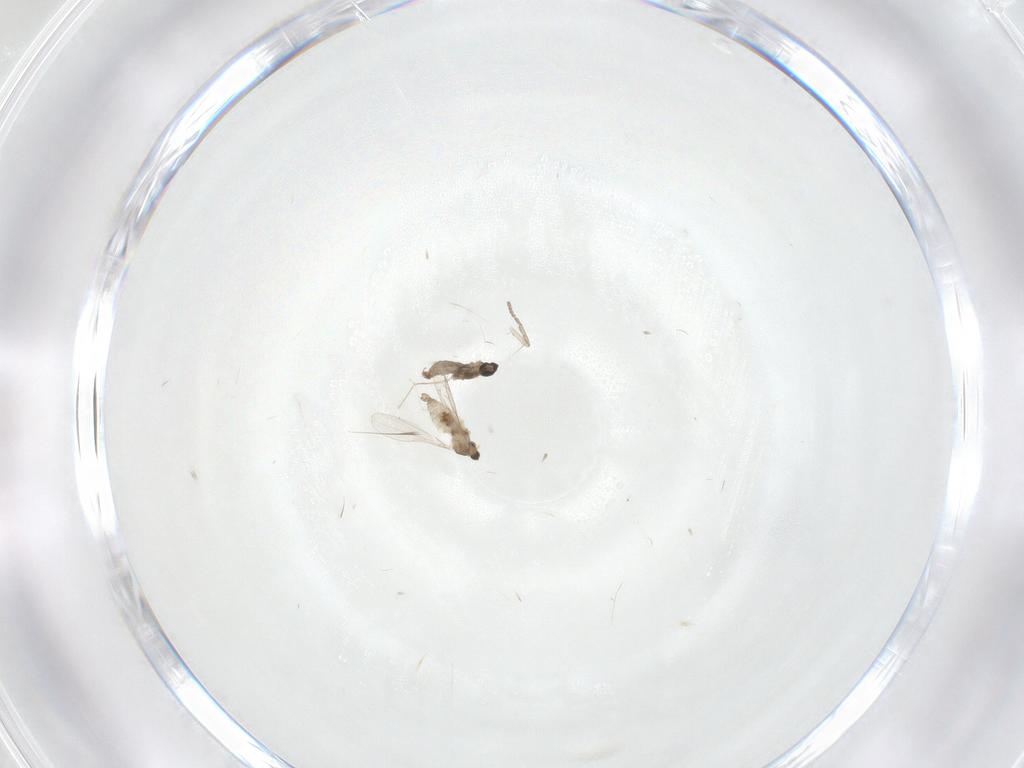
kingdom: Animalia
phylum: Arthropoda
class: Insecta
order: Diptera
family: Cecidomyiidae
